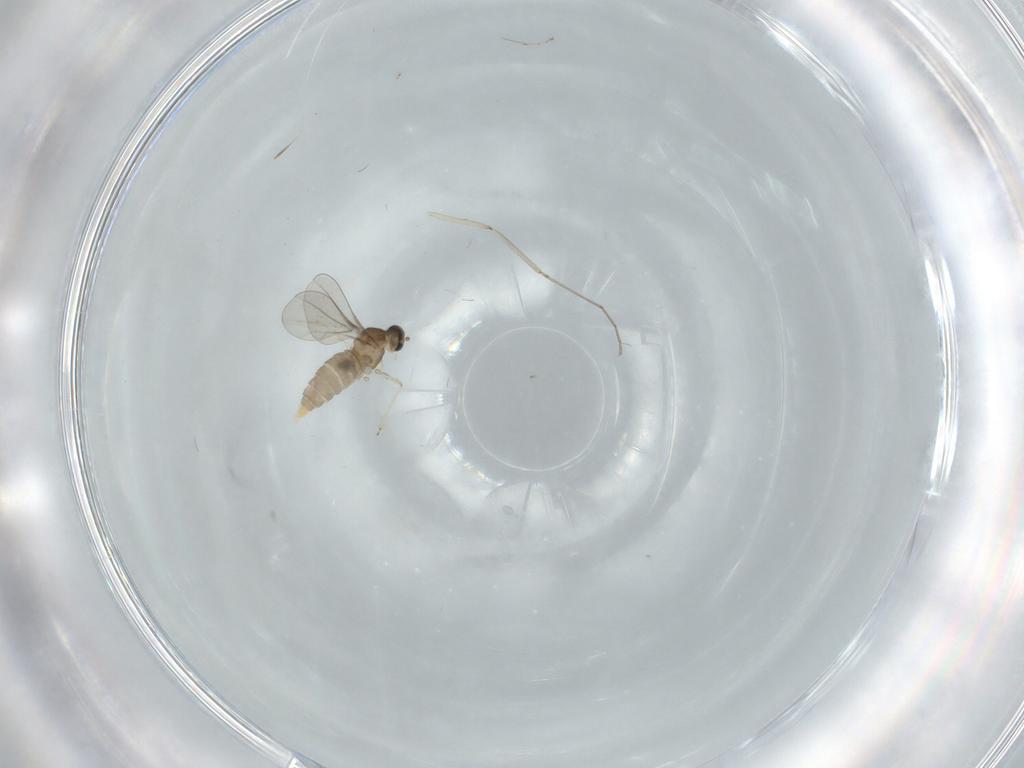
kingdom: Animalia
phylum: Arthropoda
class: Insecta
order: Diptera
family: Cecidomyiidae
